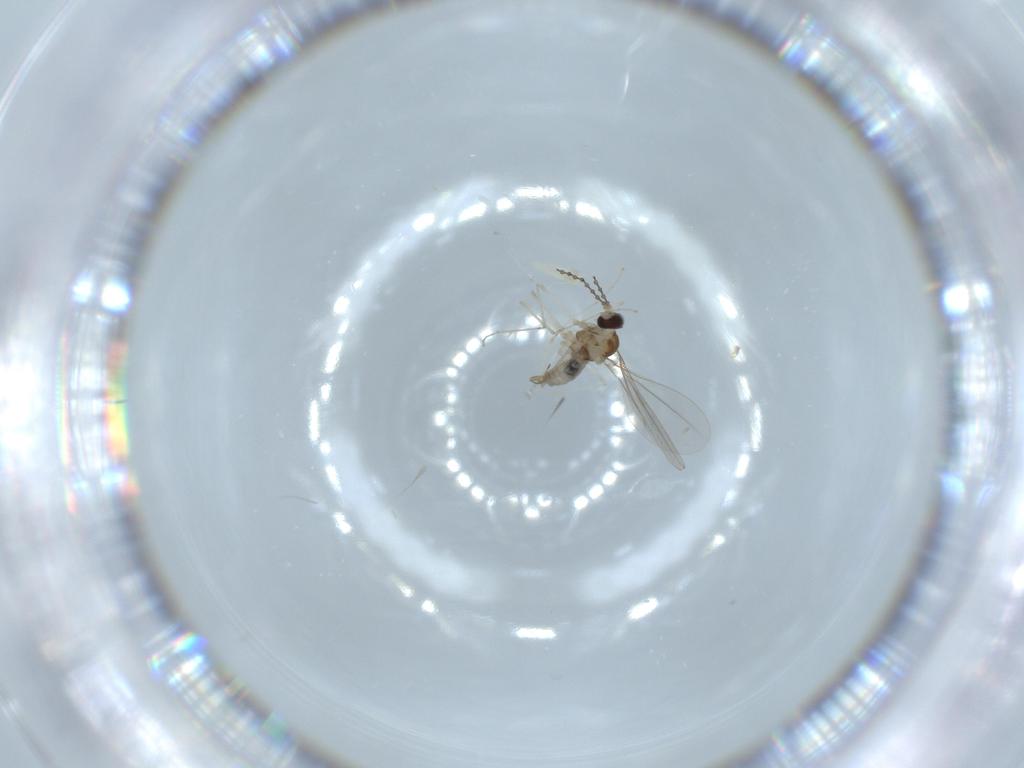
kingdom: Animalia
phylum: Arthropoda
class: Insecta
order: Diptera
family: Cecidomyiidae
